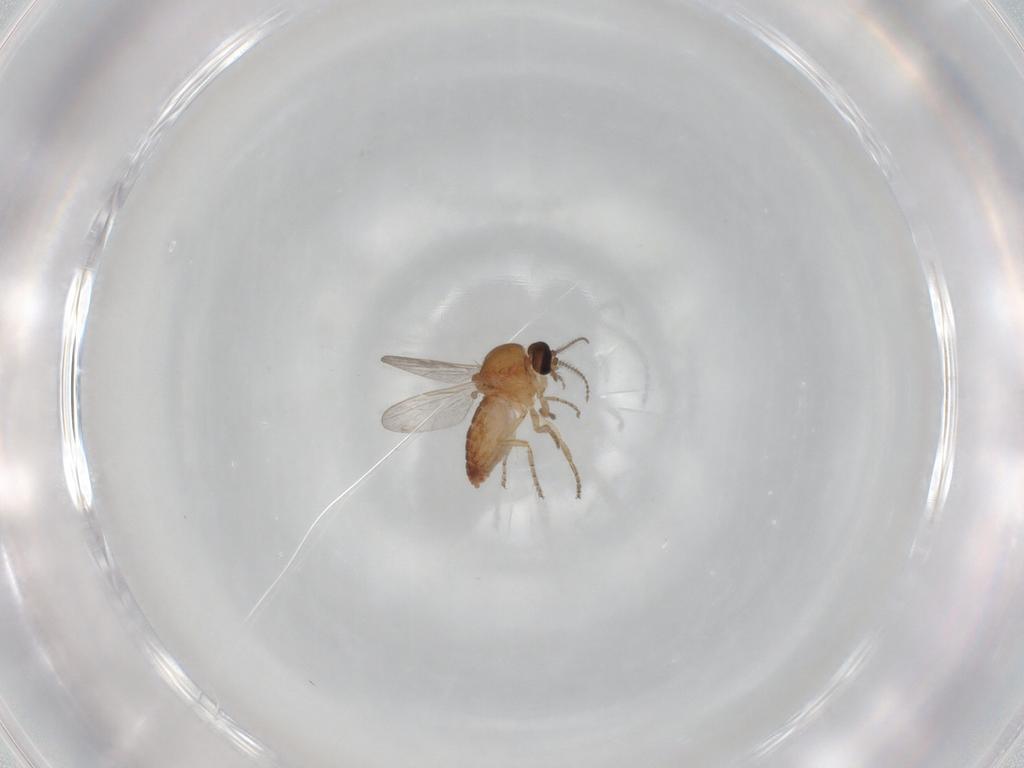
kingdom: Animalia
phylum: Arthropoda
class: Insecta
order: Diptera
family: Ceratopogonidae
